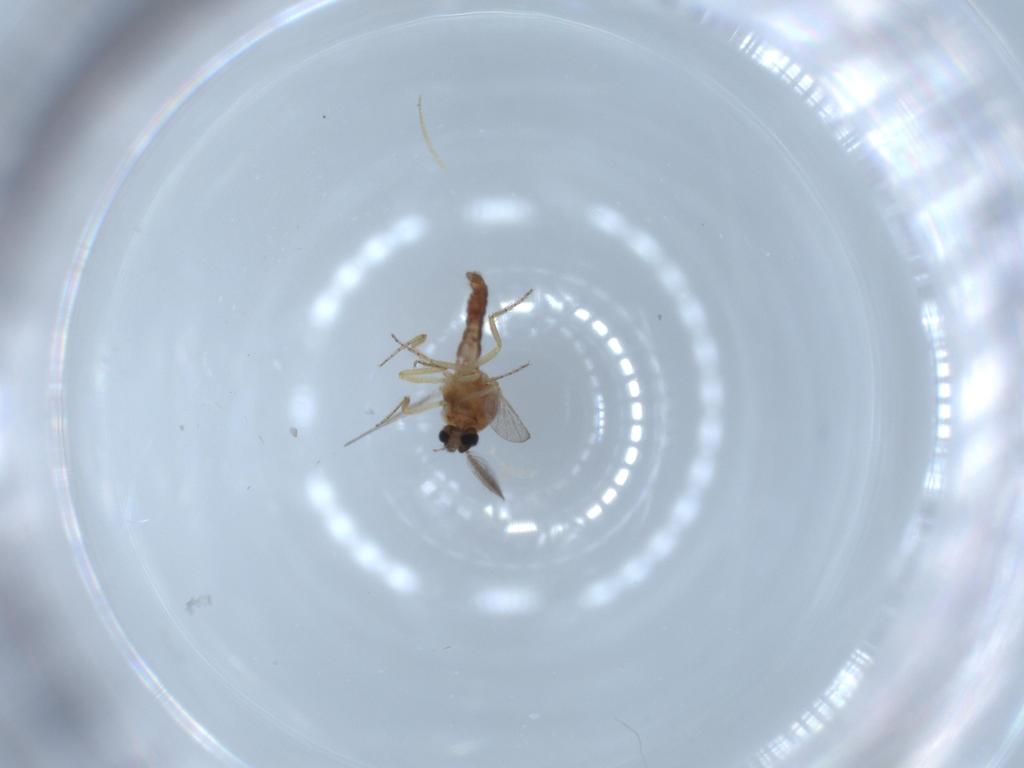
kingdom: Animalia
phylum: Arthropoda
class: Insecta
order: Diptera
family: Ceratopogonidae
